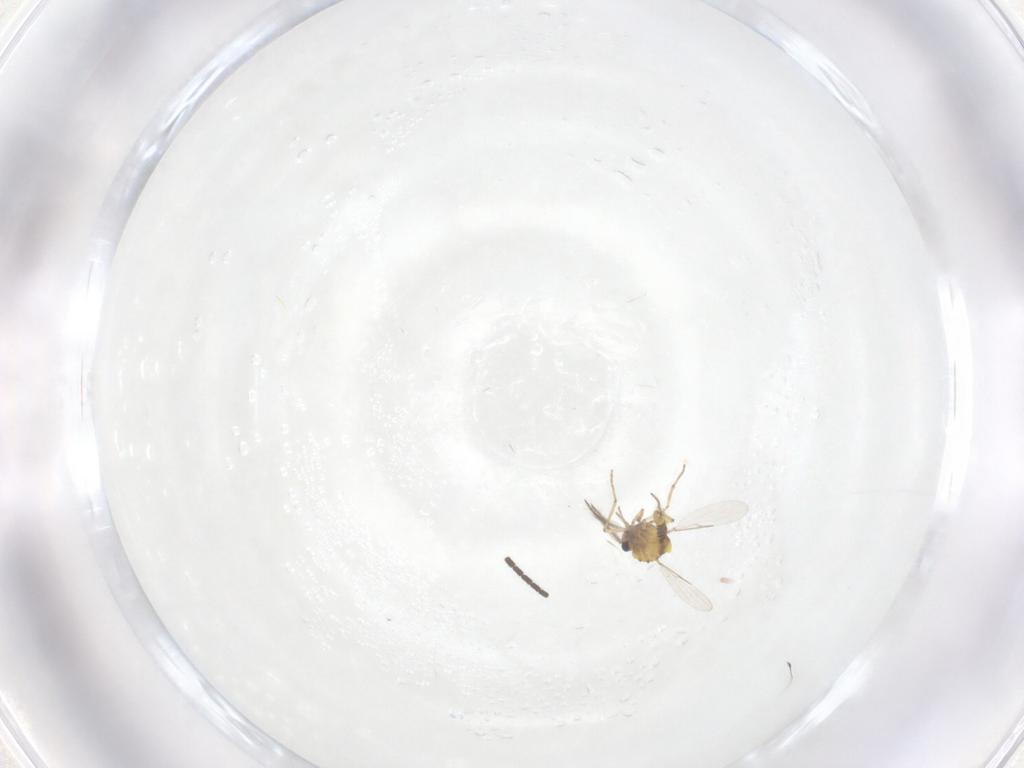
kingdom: Animalia
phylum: Arthropoda
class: Insecta
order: Diptera
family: Ceratopogonidae
